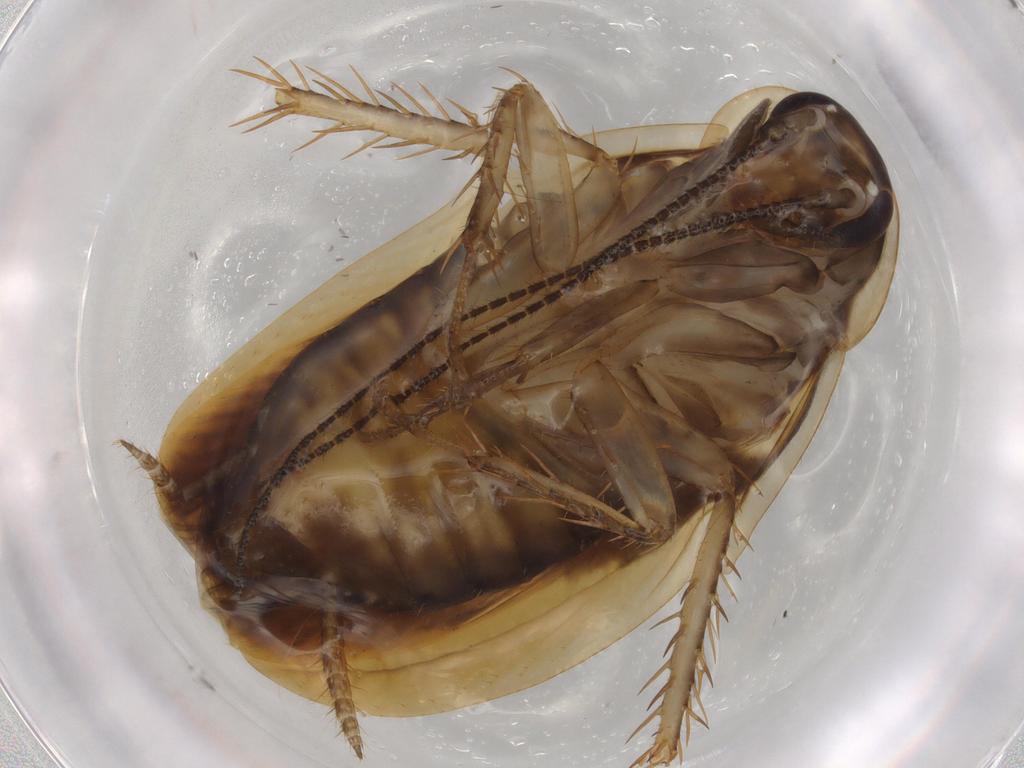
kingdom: Animalia
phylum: Arthropoda
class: Insecta
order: Blattodea
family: Ectobiidae
